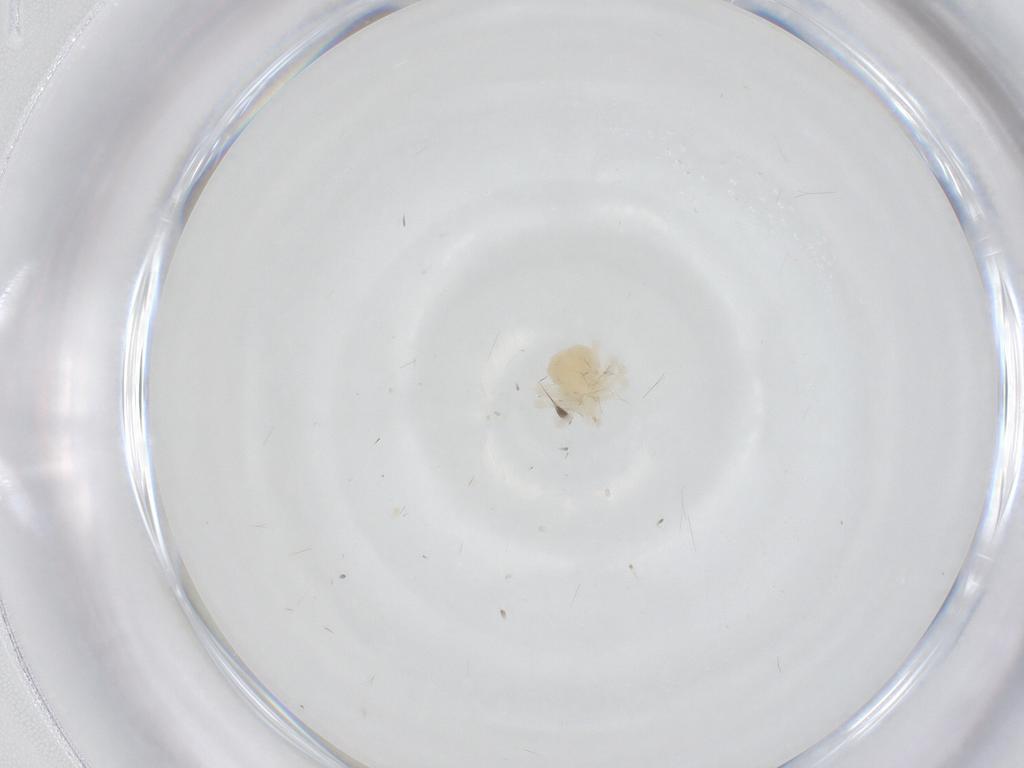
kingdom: Animalia
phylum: Arthropoda
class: Arachnida
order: Trombidiformes
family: Anystidae
